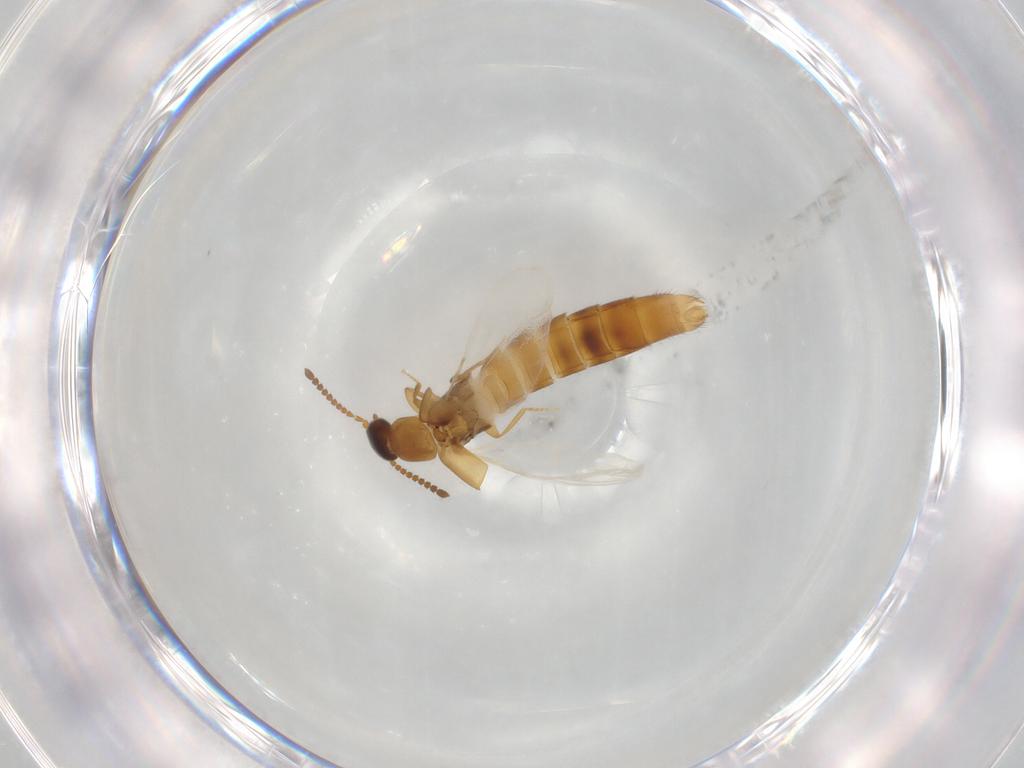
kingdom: Animalia
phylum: Arthropoda
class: Insecta
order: Coleoptera
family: Staphylinidae
